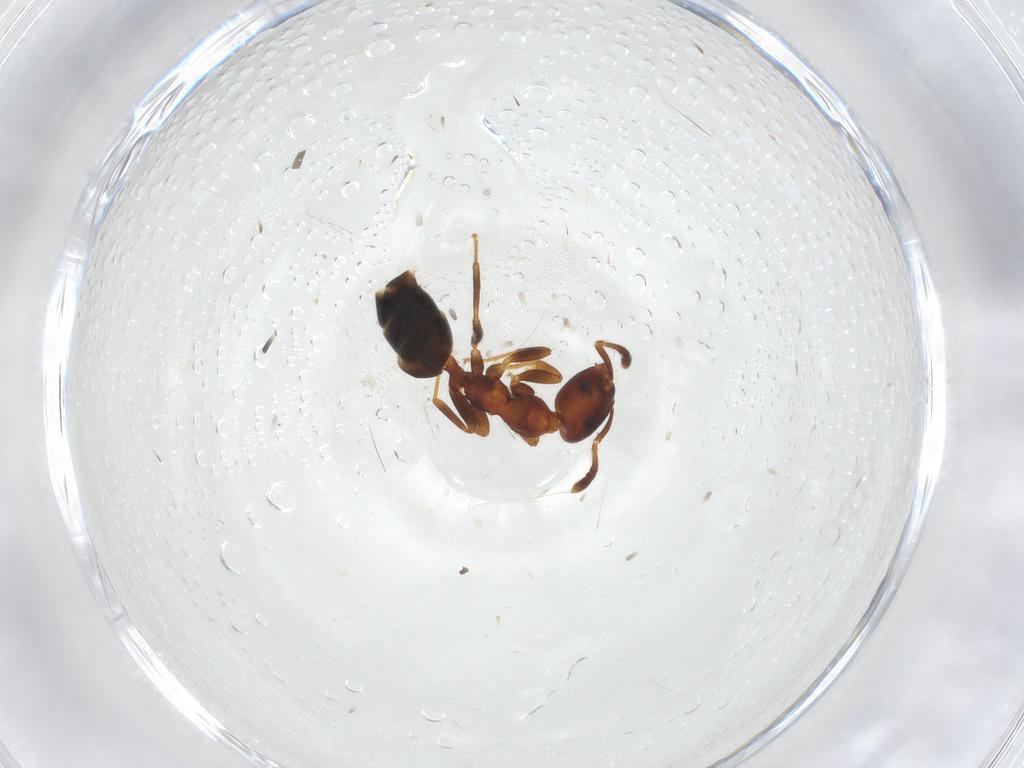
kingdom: Animalia
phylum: Arthropoda
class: Insecta
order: Hymenoptera
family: Formicidae
